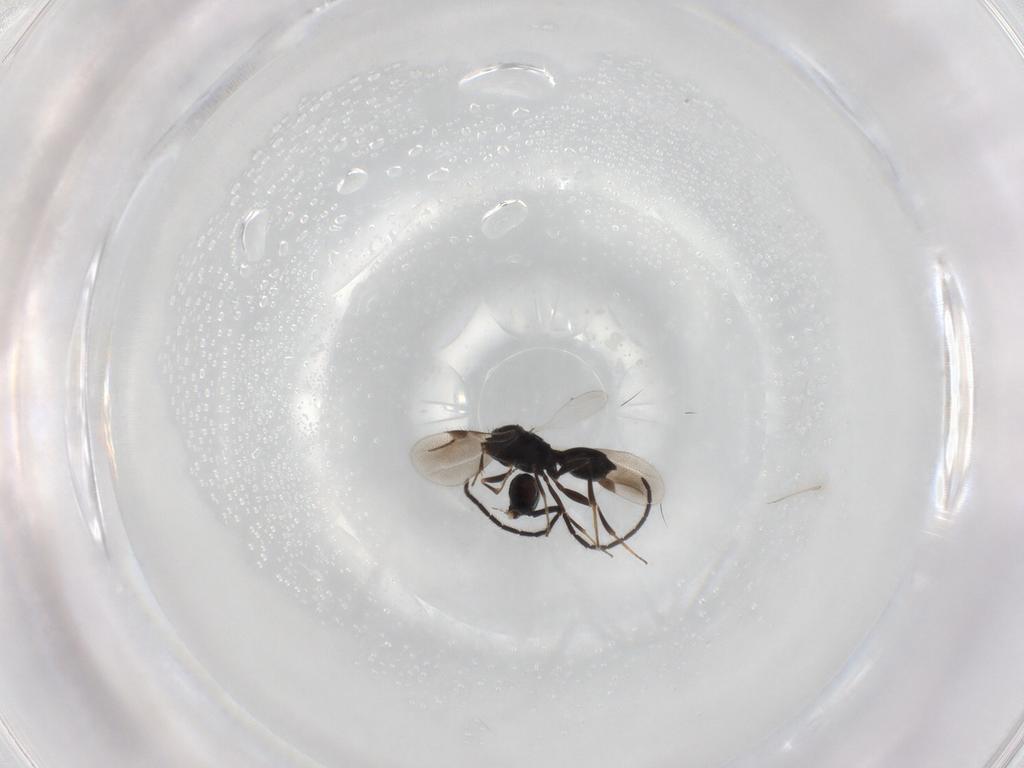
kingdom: Animalia
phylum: Arthropoda
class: Insecta
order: Hymenoptera
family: Megaspilidae
